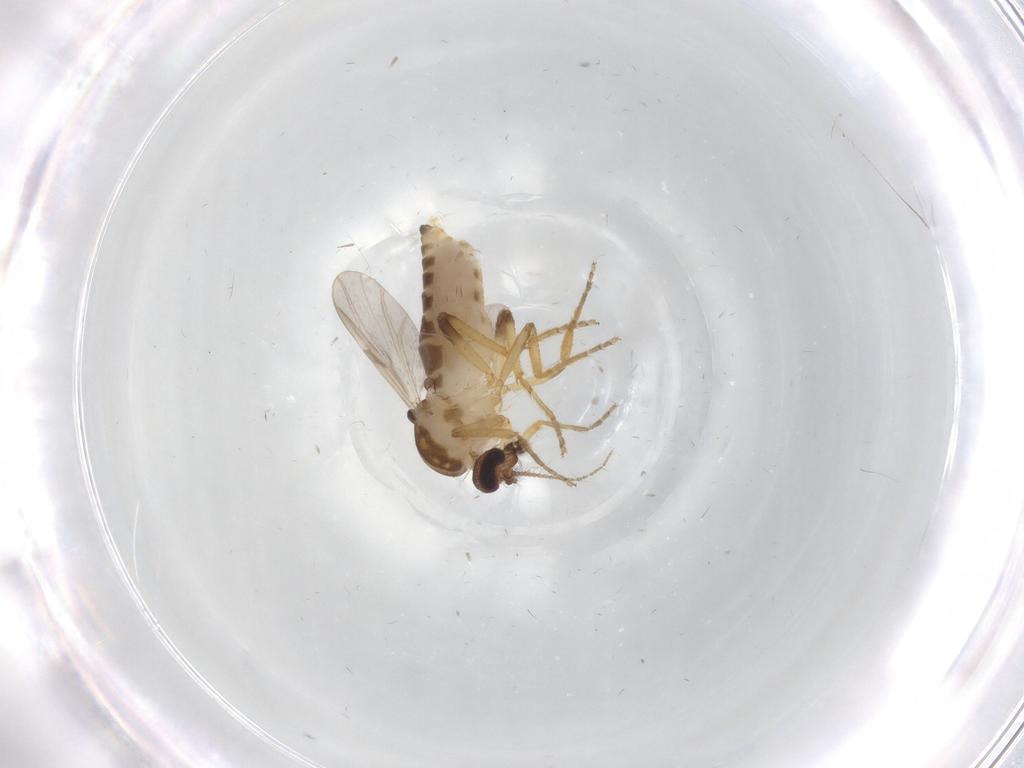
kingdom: Animalia
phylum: Arthropoda
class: Insecta
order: Diptera
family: Ceratopogonidae
